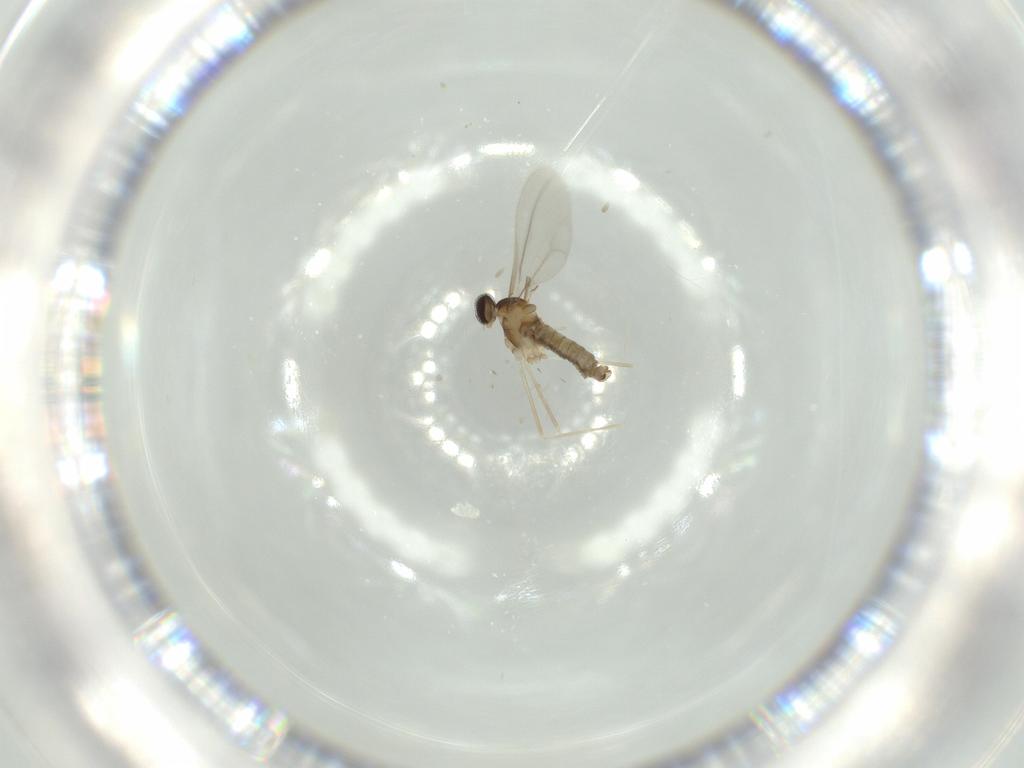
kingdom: Animalia
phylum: Arthropoda
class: Insecta
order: Diptera
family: Cecidomyiidae
